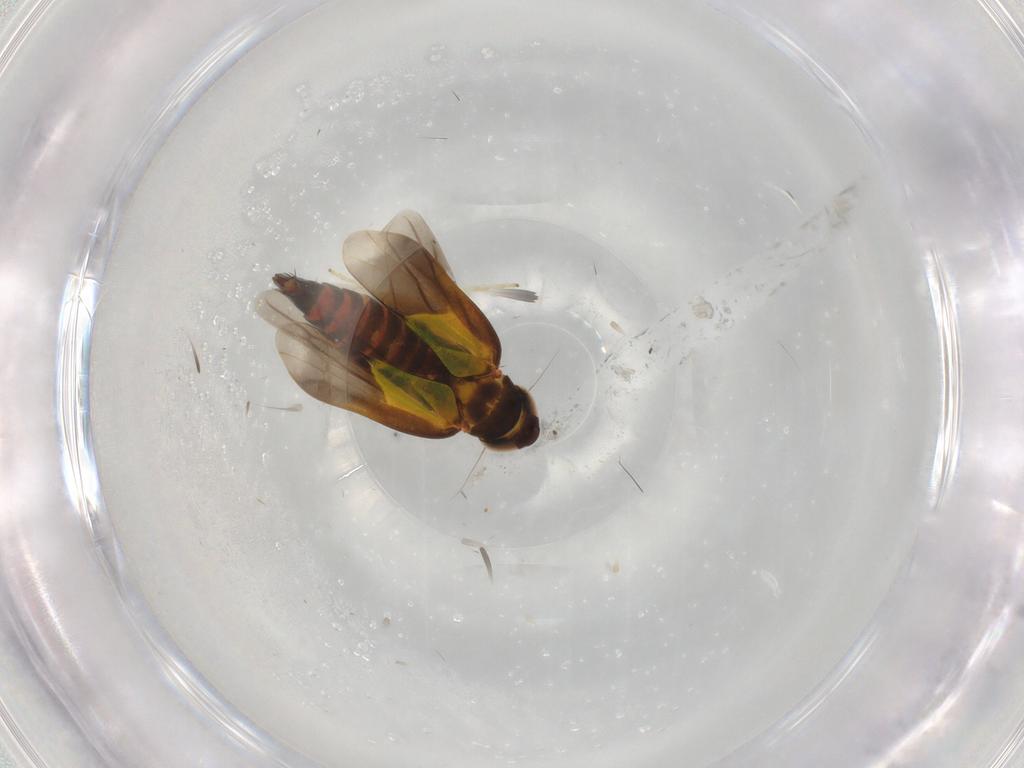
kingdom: Animalia
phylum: Arthropoda
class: Insecta
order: Hemiptera
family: Cicadellidae
